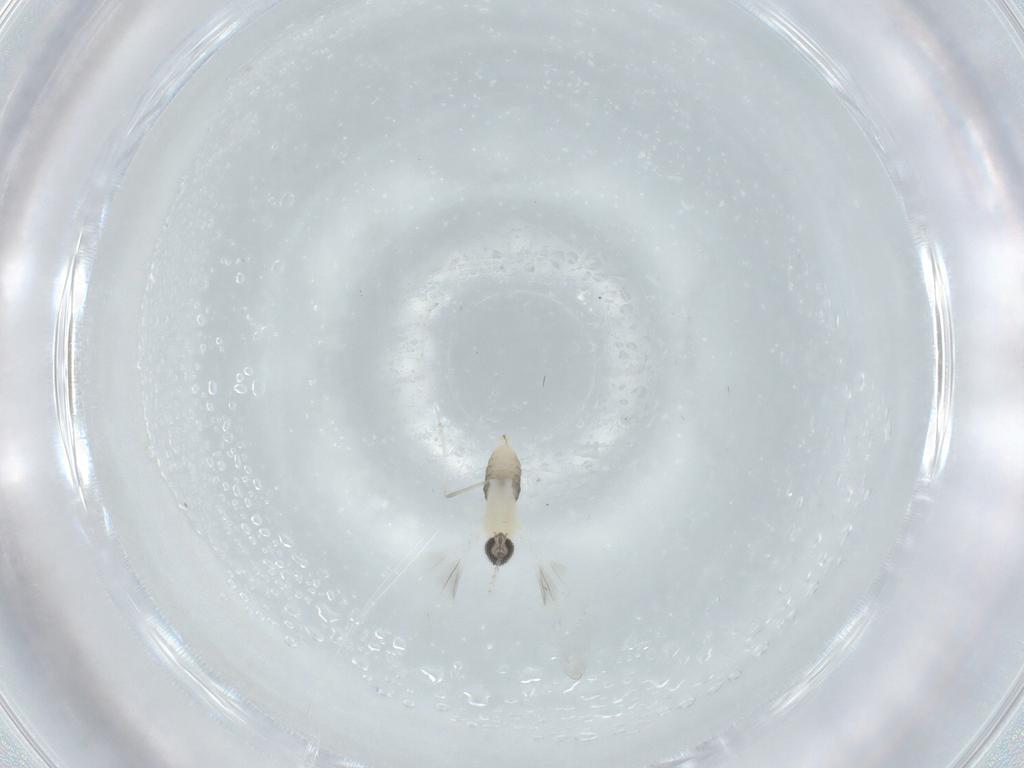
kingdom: Animalia
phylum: Arthropoda
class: Insecta
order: Diptera
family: Cecidomyiidae
